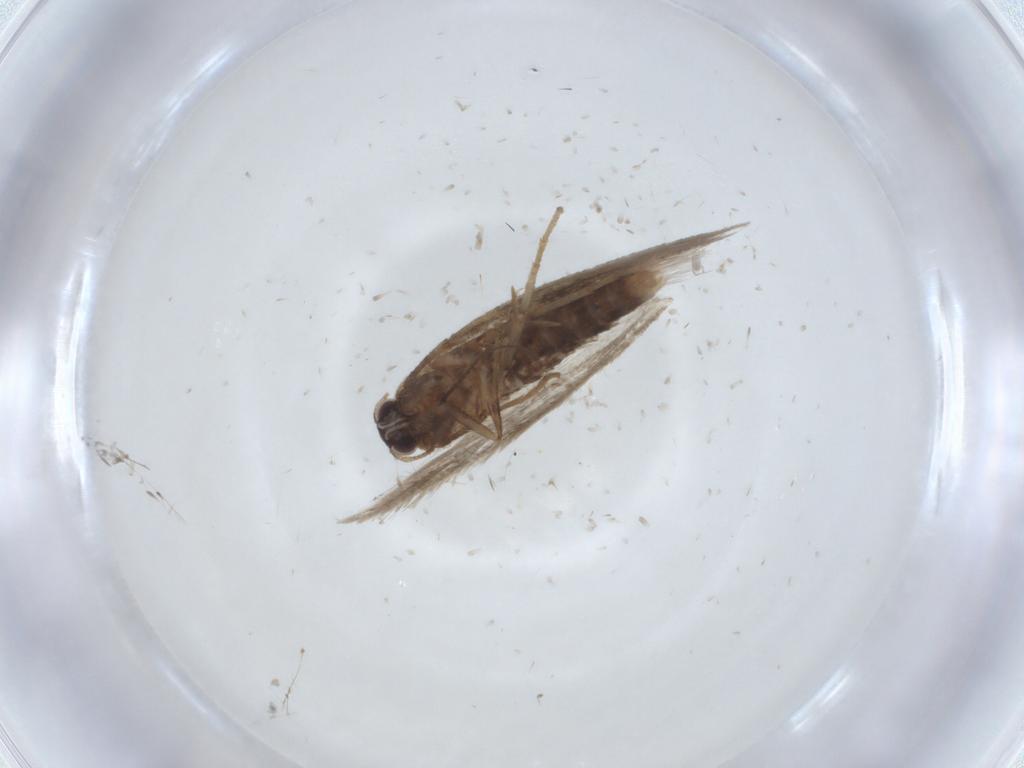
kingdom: Animalia
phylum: Arthropoda
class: Insecta
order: Lepidoptera
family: Nepticulidae
